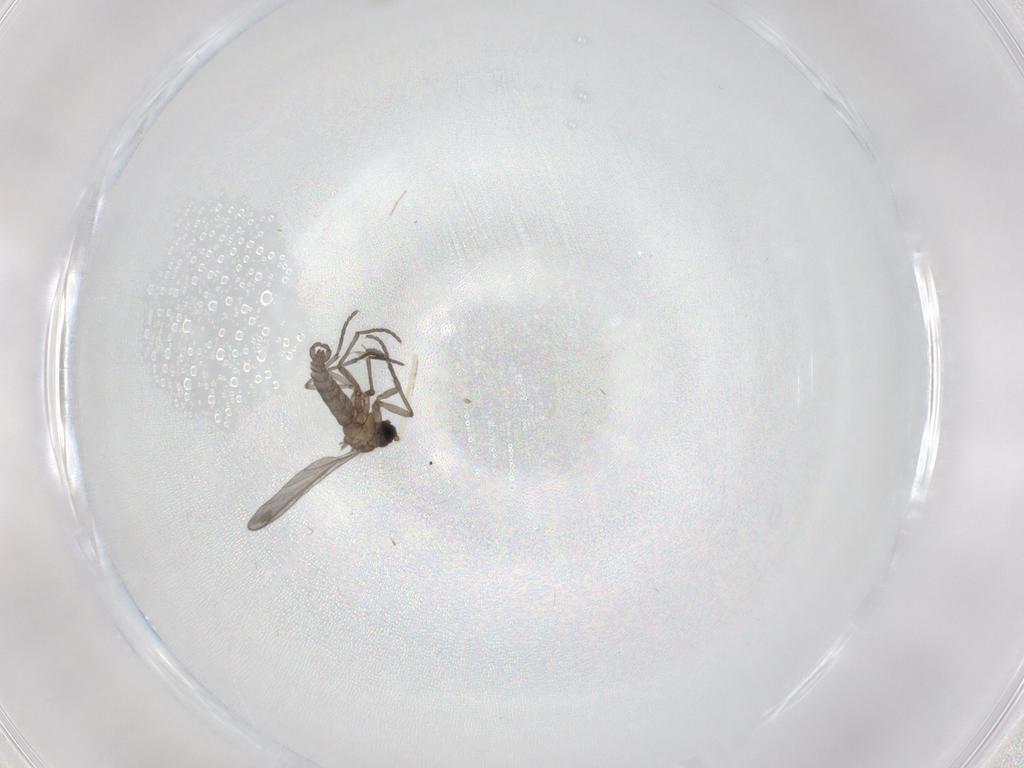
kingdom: Animalia
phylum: Arthropoda
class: Insecta
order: Diptera
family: Sciaridae
